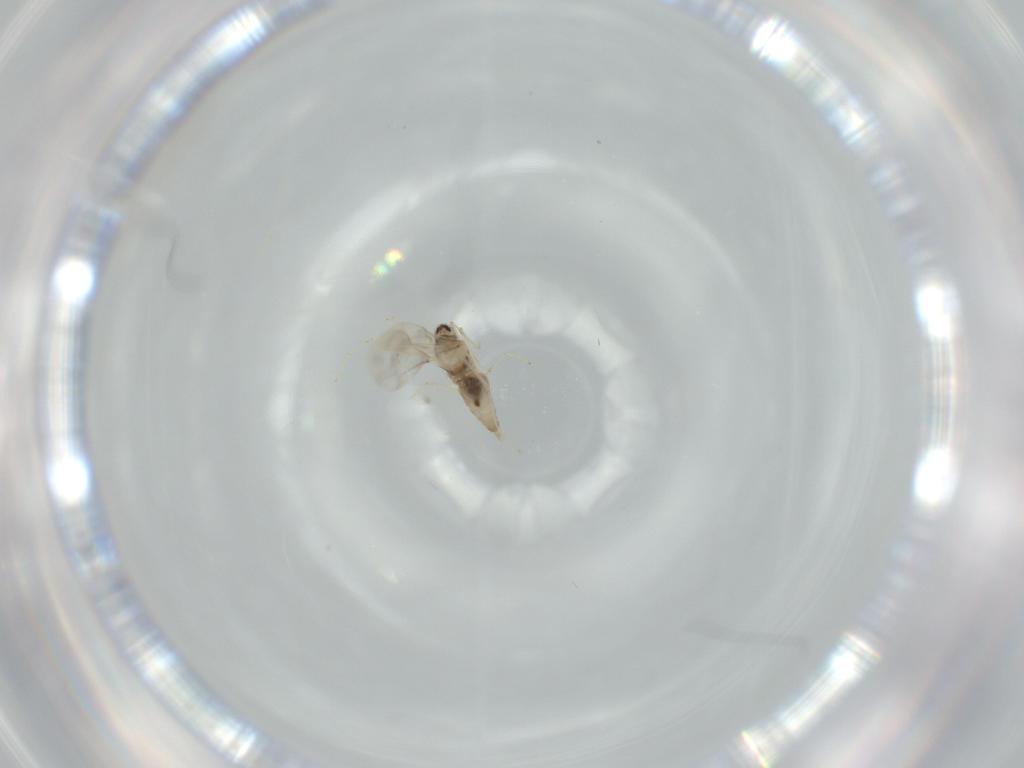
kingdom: Animalia
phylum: Arthropoda
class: Insecta
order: Diptera
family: Cecidomyiidae
